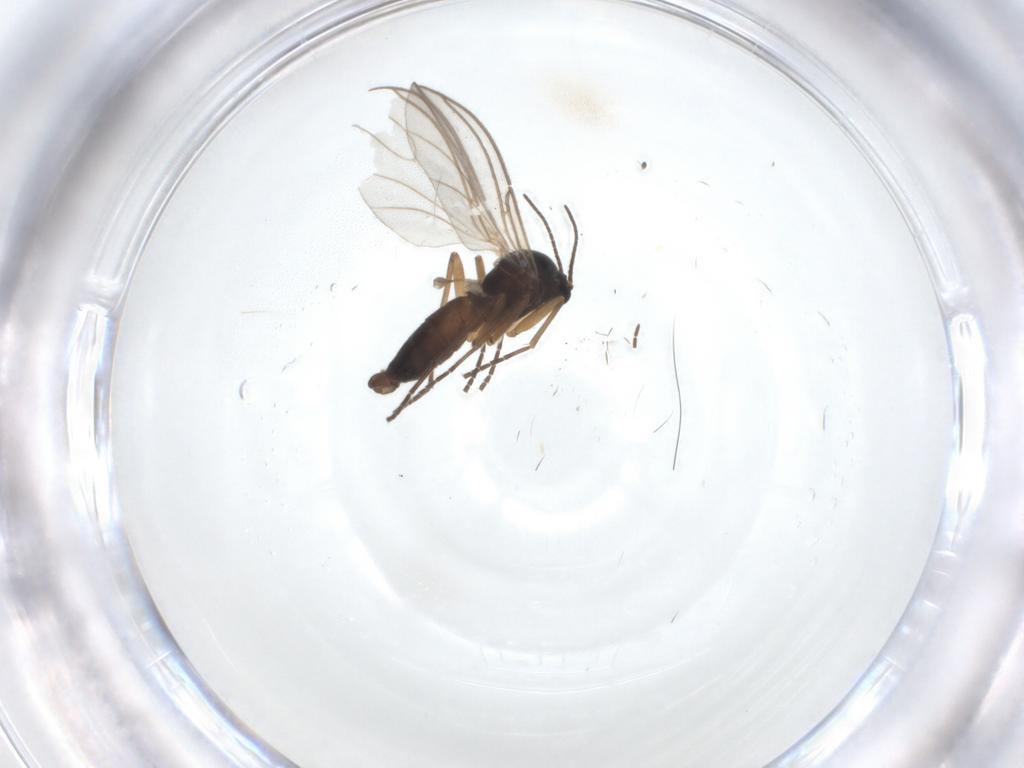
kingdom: Animalia
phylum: Arthropoda
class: Insecta
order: Diptera
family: Sciaridae
